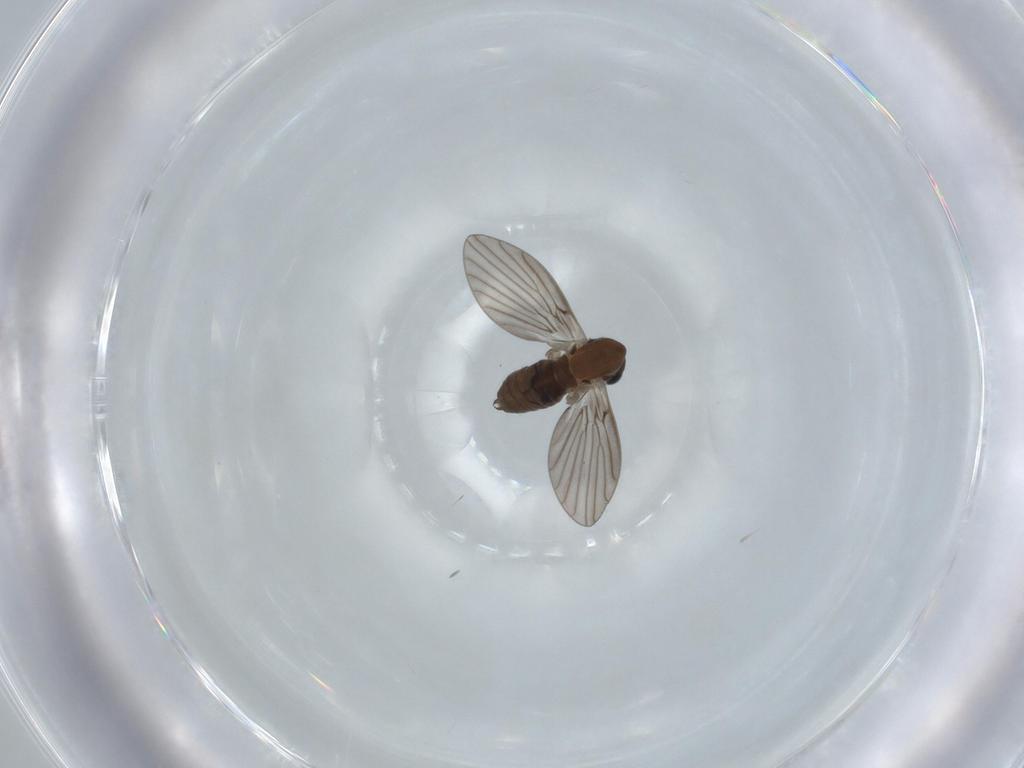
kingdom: Animalia
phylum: Arthropoda
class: Insecta
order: Diptera
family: Psychodidae
